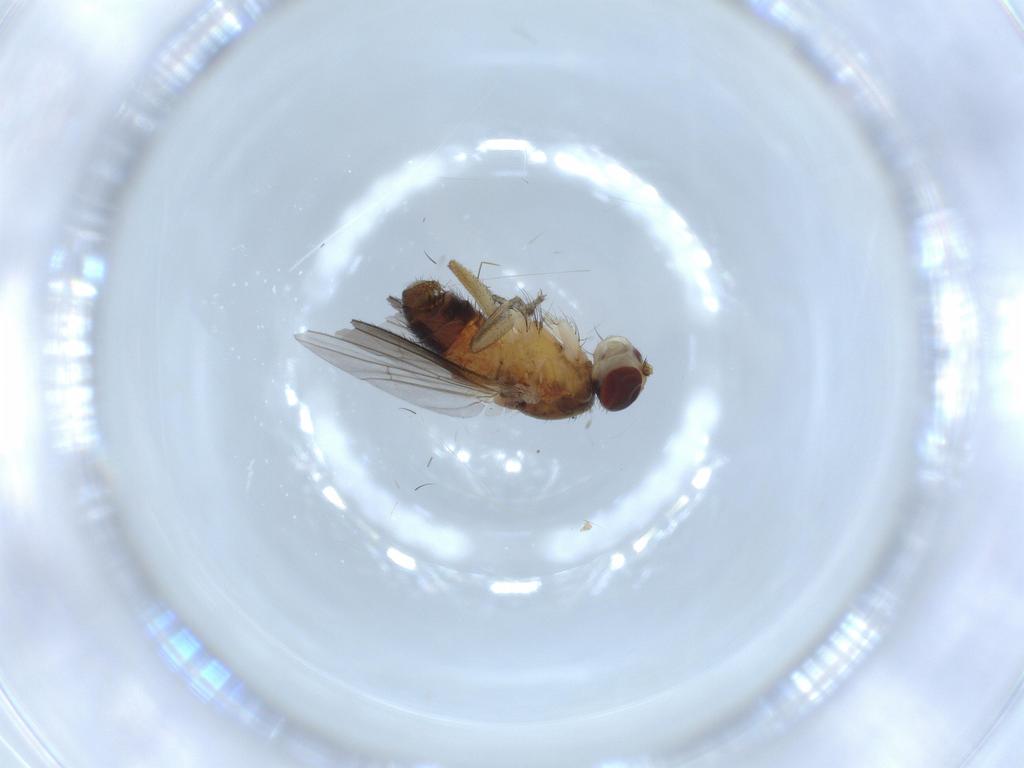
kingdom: Animalia
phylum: Arthropoda
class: Insecta
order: Diptera
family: Heleomyzidae
